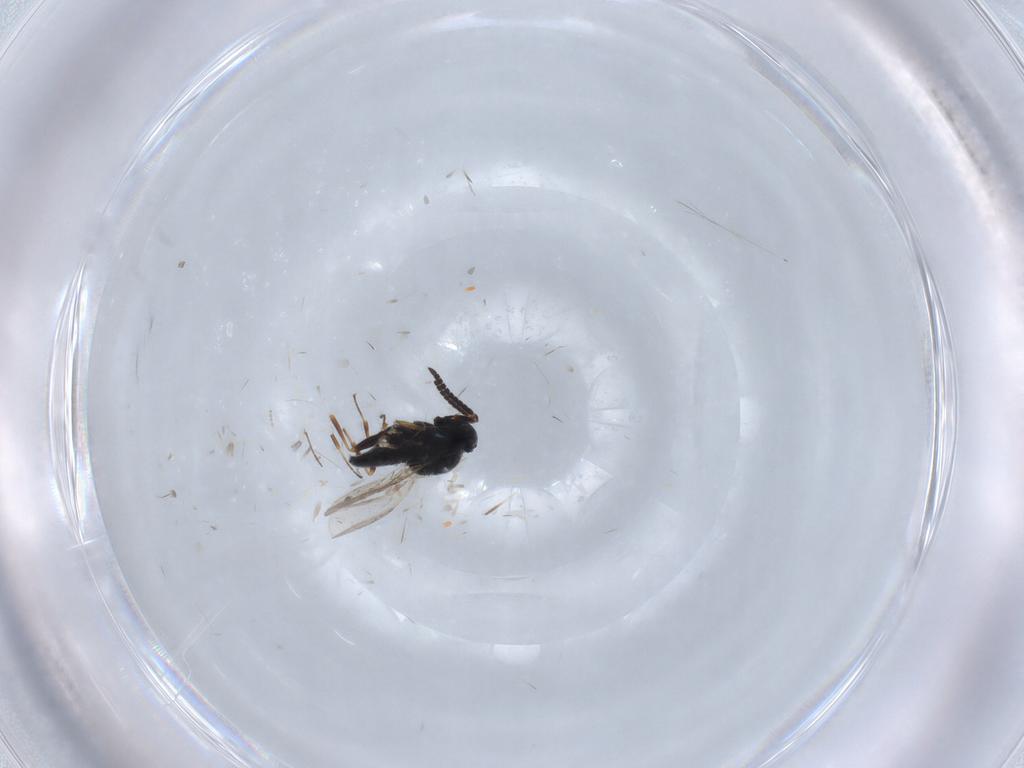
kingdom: Animalia
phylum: Arthropoda
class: Insecta
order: Hymenoptera
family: Scelionidae
